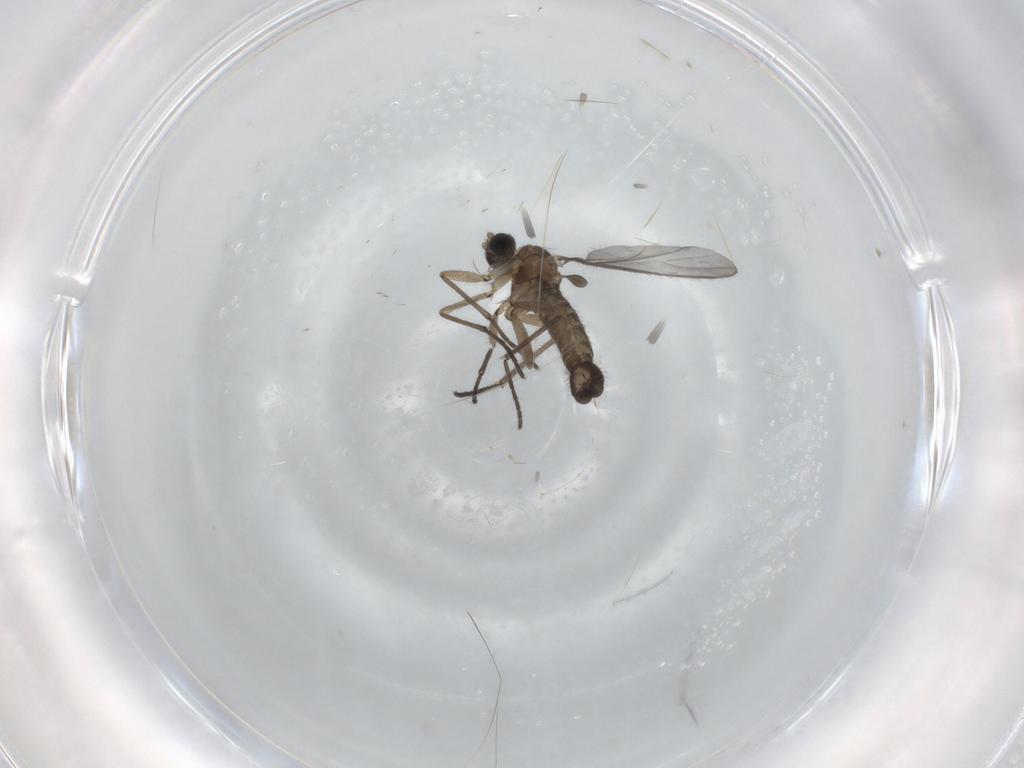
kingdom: Animalia
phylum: Arthropoda
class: Insecta
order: Diptera
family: Sciaridae
